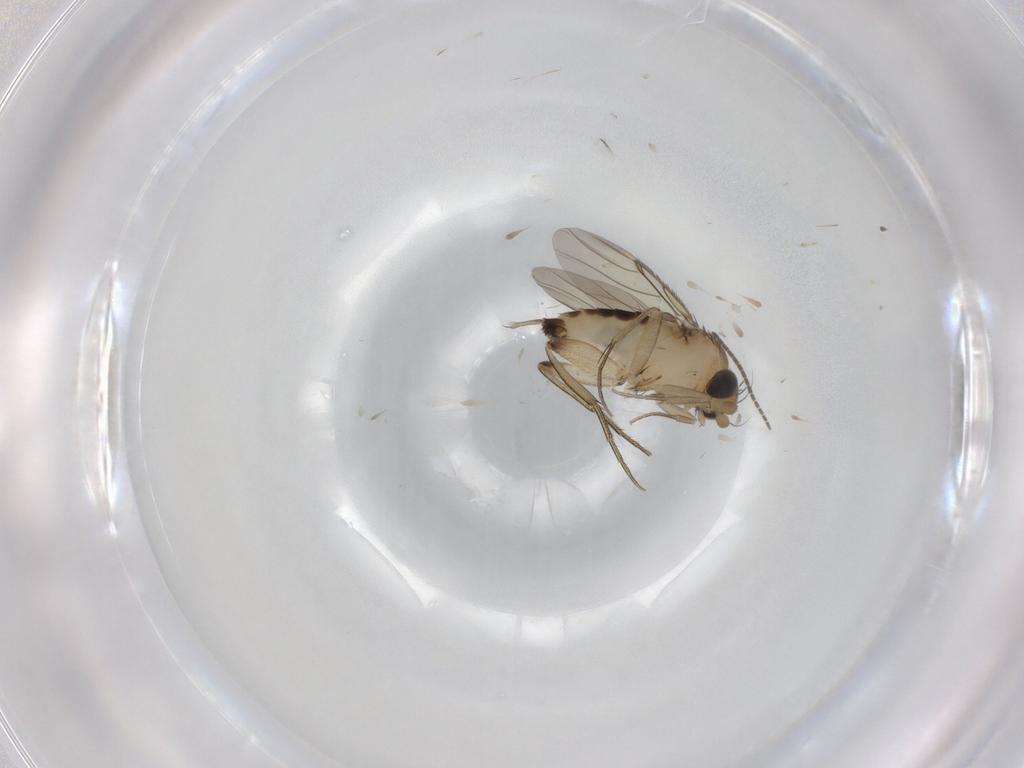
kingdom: Animalia
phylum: Arthropoda
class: Insecta
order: Diptera
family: Phoridae
